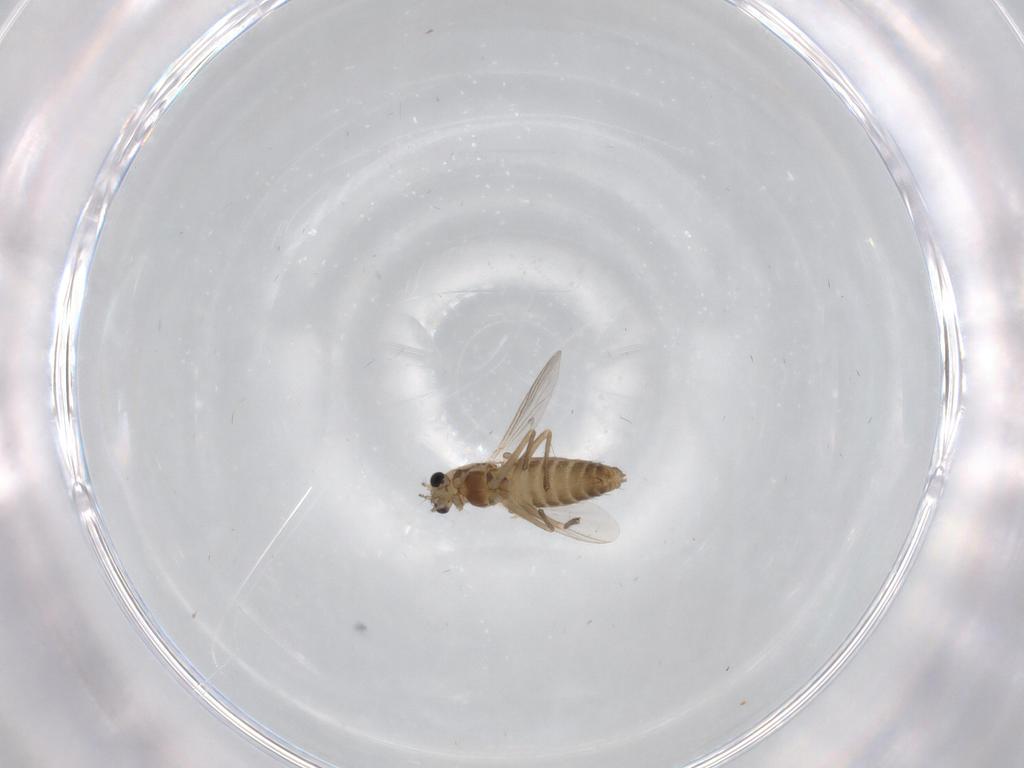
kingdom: Animalia
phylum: Arthropoda
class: Insecta
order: Diptera
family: Chironomidae
